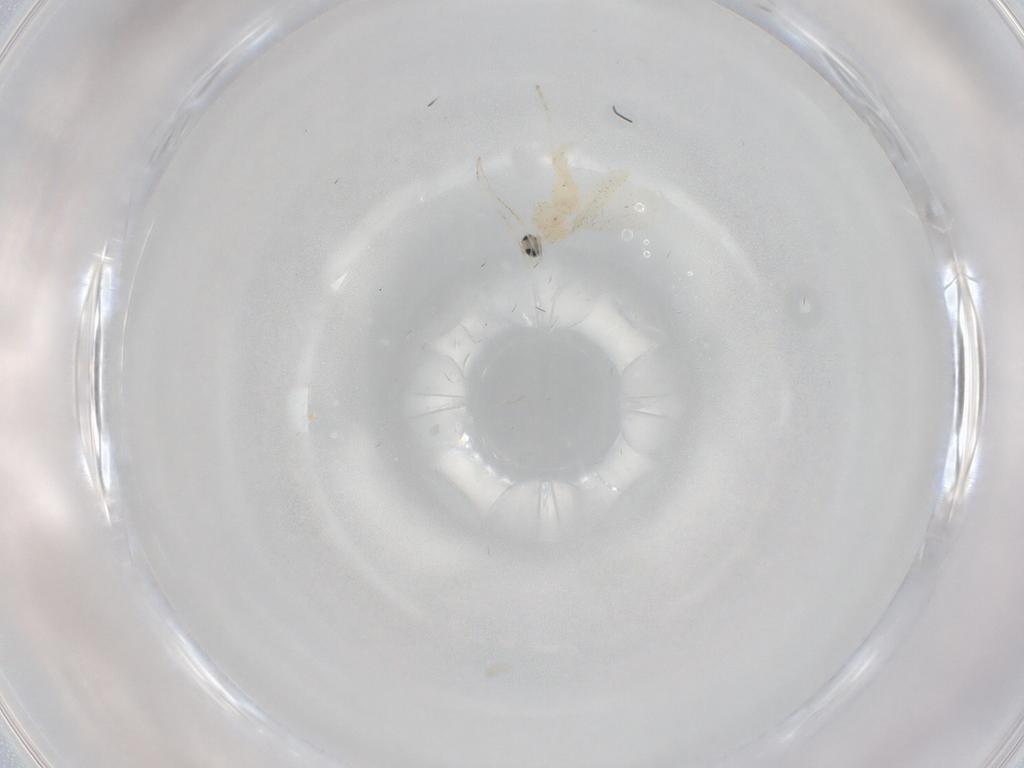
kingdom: Animalia
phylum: Arthropoda
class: Insecta
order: Diptera
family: Cecidomyiidae
